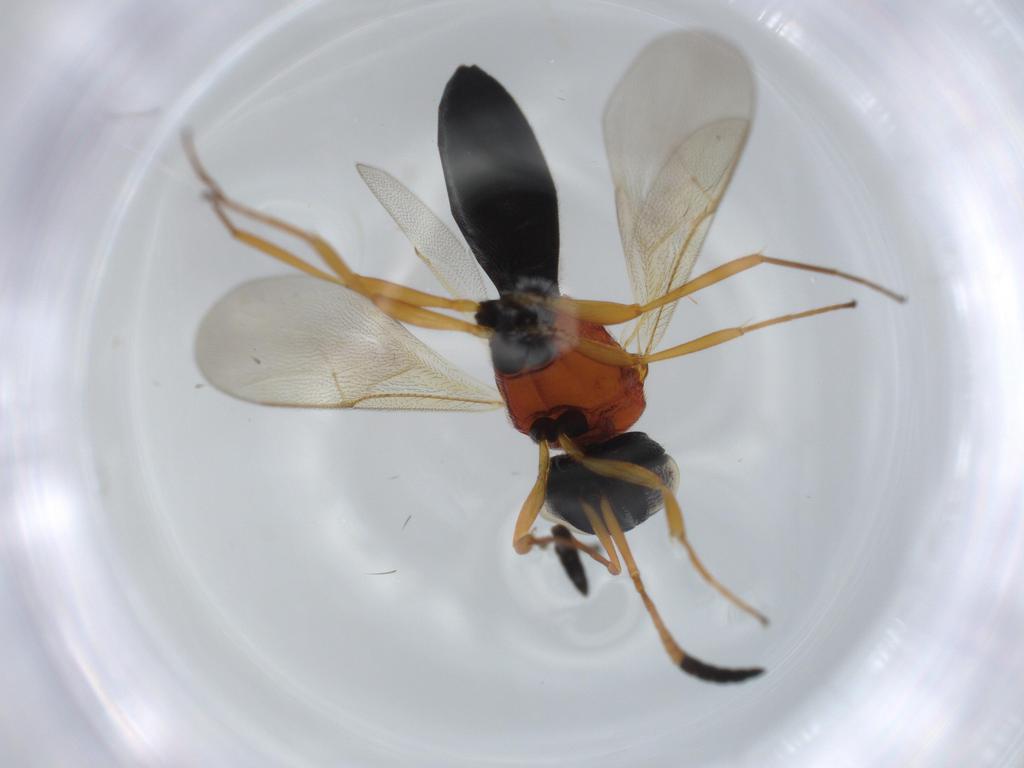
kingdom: Animalia
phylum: Arthropoda
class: Insecta
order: Hymenoptera
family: Scelionidae
